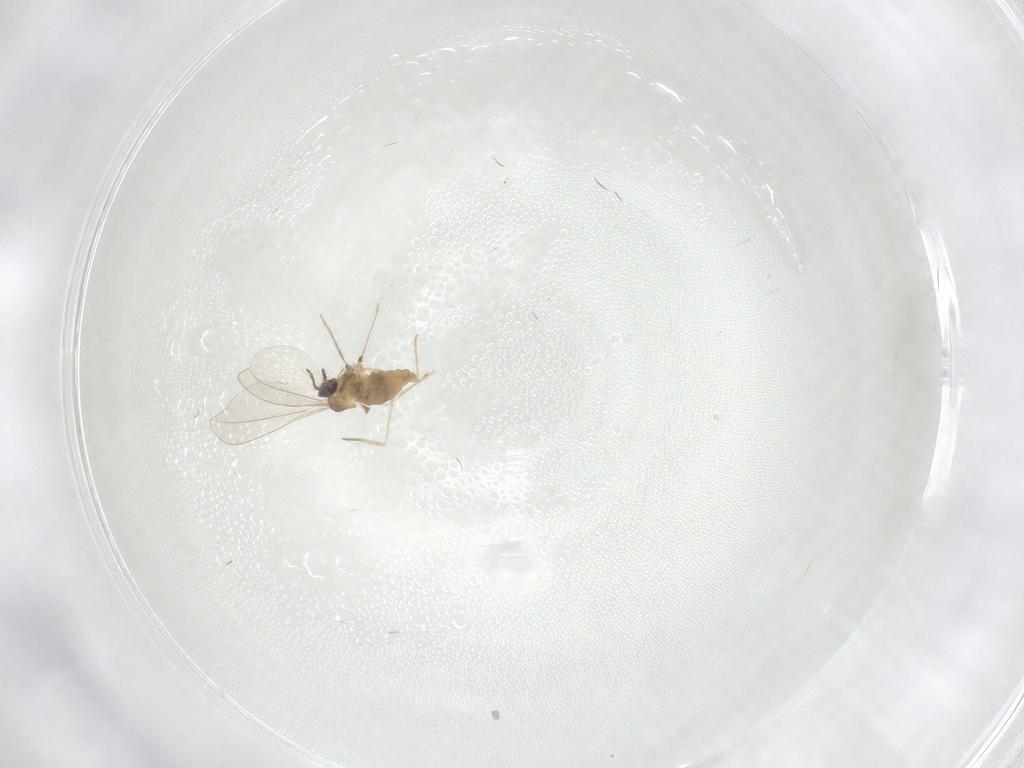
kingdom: Animalia
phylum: Arthropoda
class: Insecta
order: Diptera
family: Cecidomyiidae
